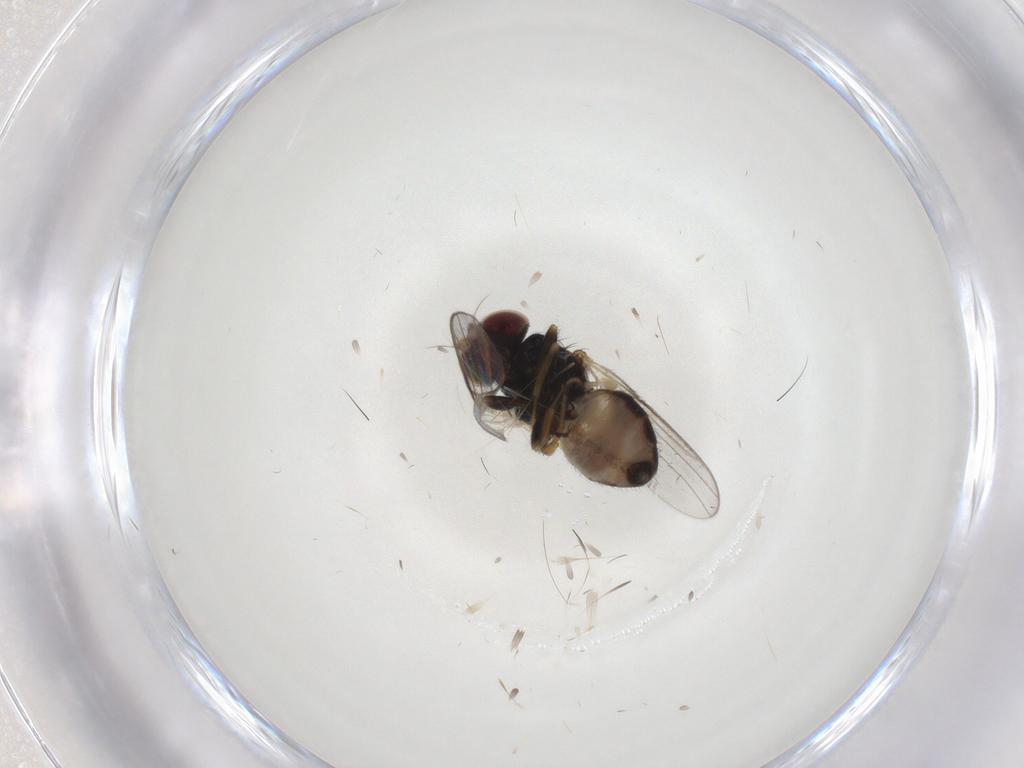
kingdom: Animalia
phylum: Arthropoda
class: Insecta
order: Diptera
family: Chloropidae
